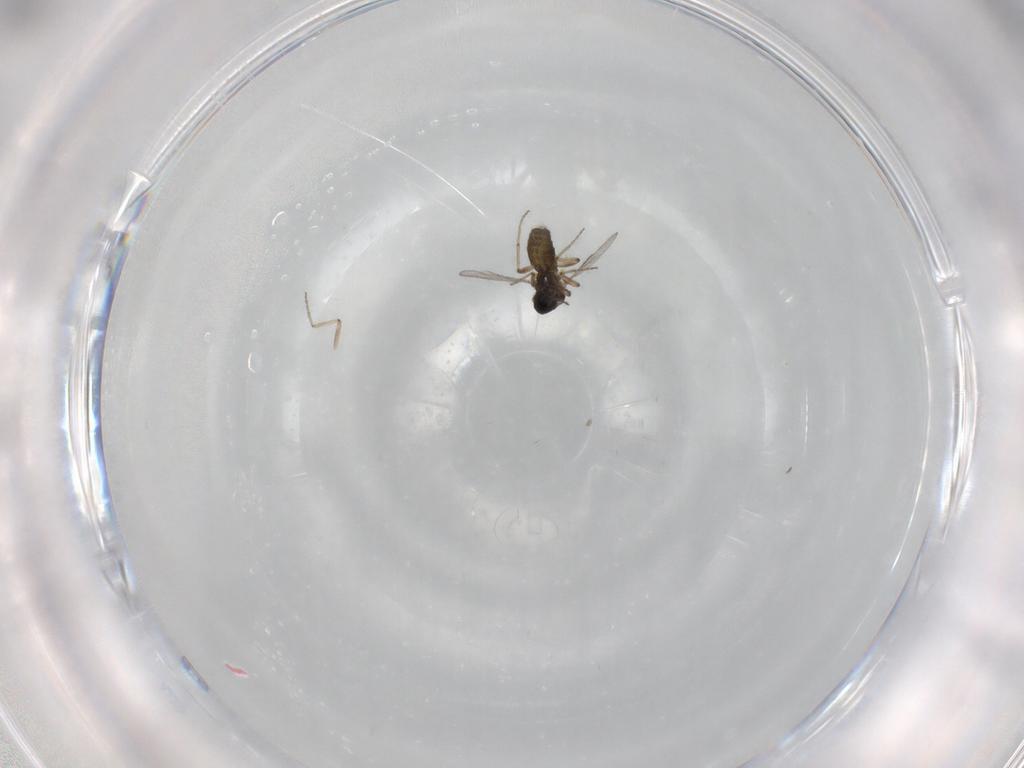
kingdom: Animalia
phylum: Arthropoda
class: Insecta
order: Diptera
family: Ceratopogonidae
